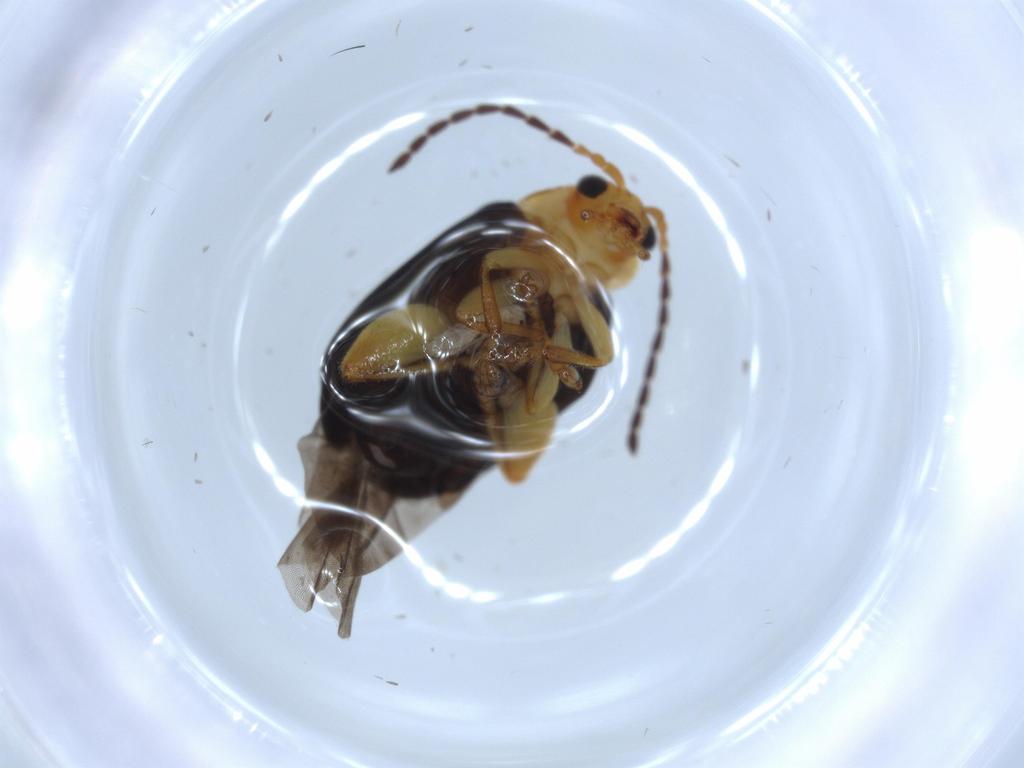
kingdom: Animalia
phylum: Arthropoda
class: Insecta
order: Coleoptera
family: Chrysomelidae
